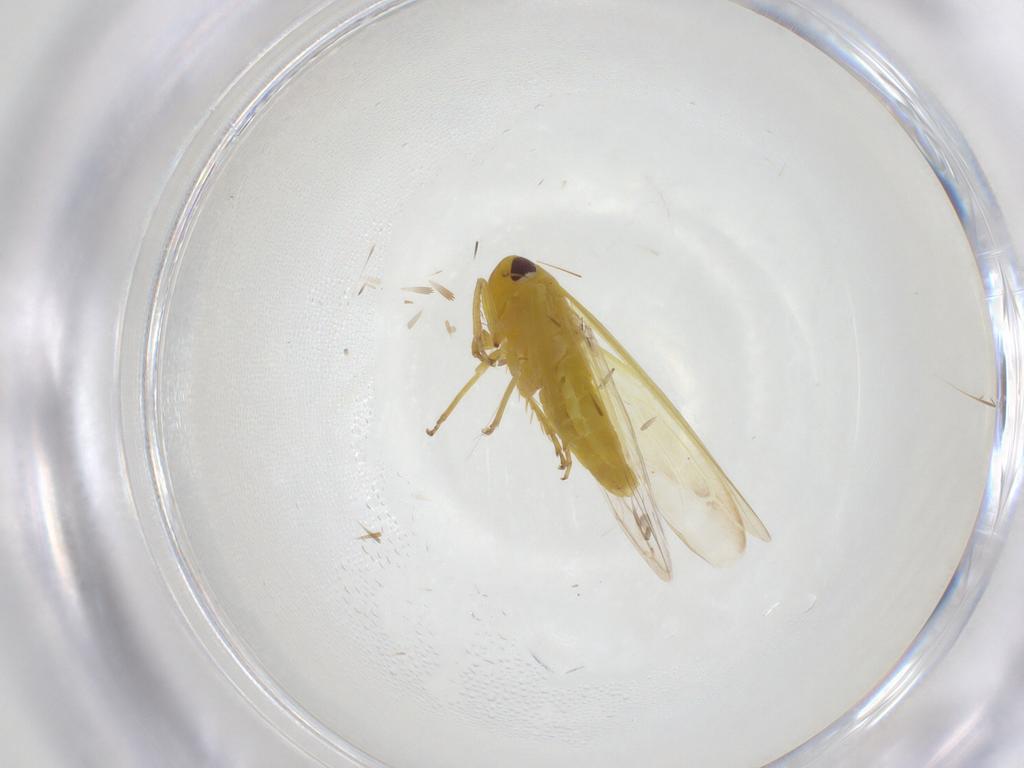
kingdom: Animalia
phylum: Arthropoda
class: Insecta
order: Hemiptera
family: Cicadellidae
